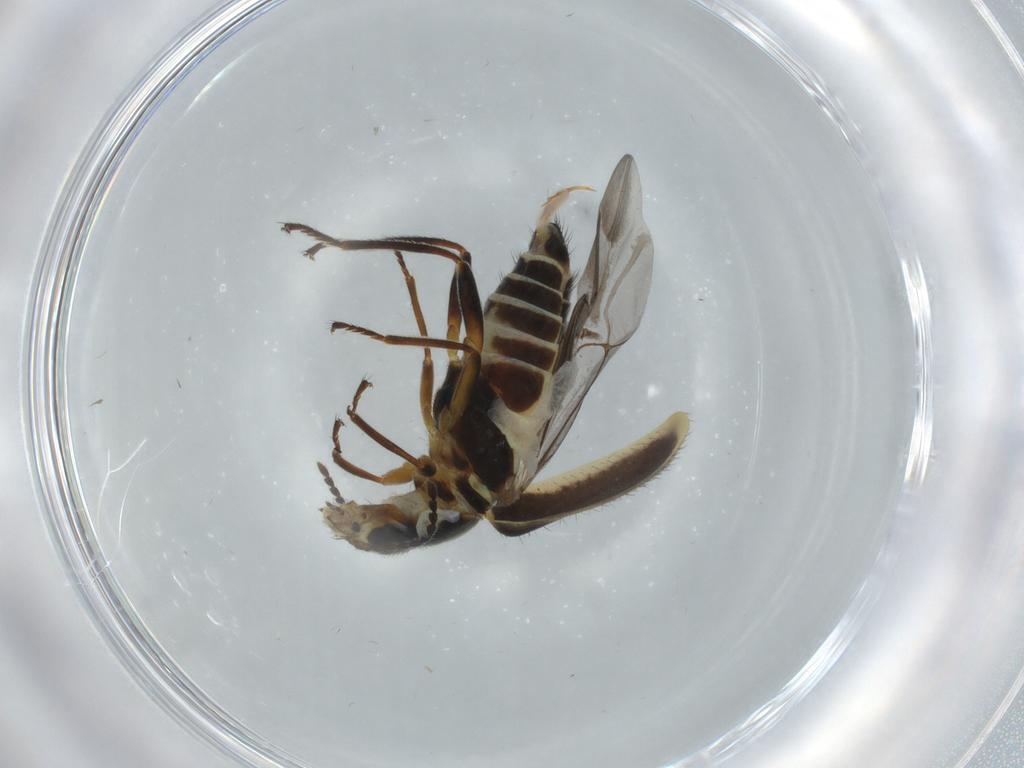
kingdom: Animalia
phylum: Arthropoda
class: Insecta
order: Coleoptera
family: Melyridae
